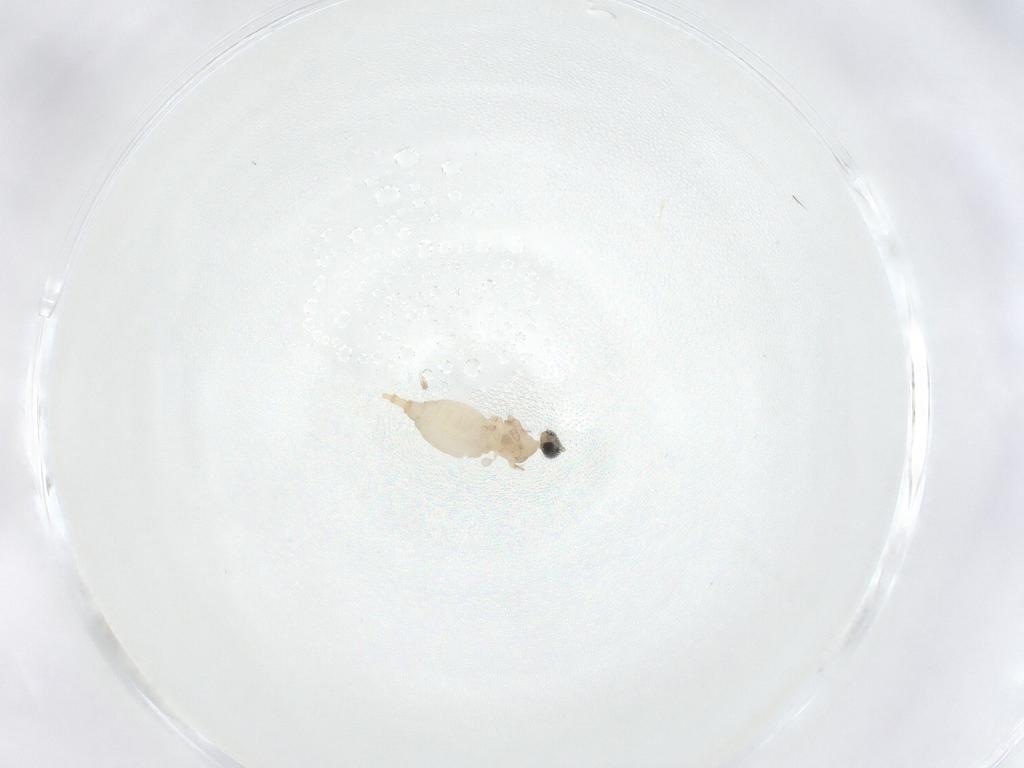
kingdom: Animalia
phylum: Arthropoda
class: Insecta
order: Diptera
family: Cecidomyiidae
